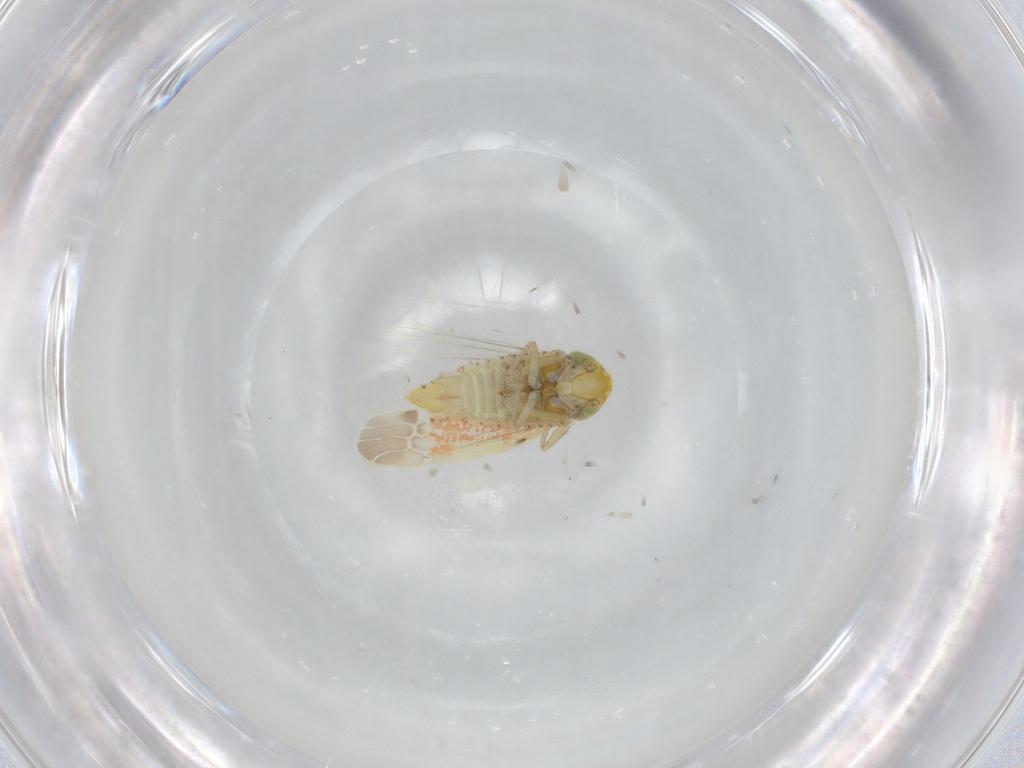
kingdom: Animalia
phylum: Arthropoda
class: Insecta
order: Hemiptera
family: Cicadellidae
